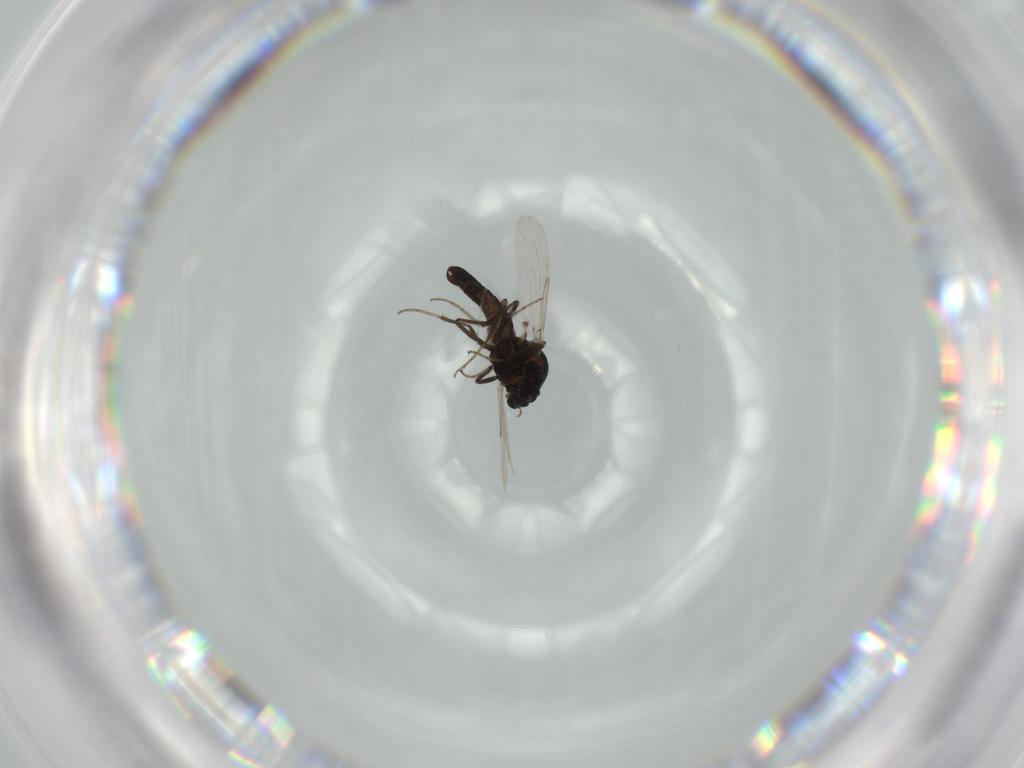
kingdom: Animalia
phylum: Arthropoda
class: Insecta
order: Diptera
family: Ceratopogonidae
